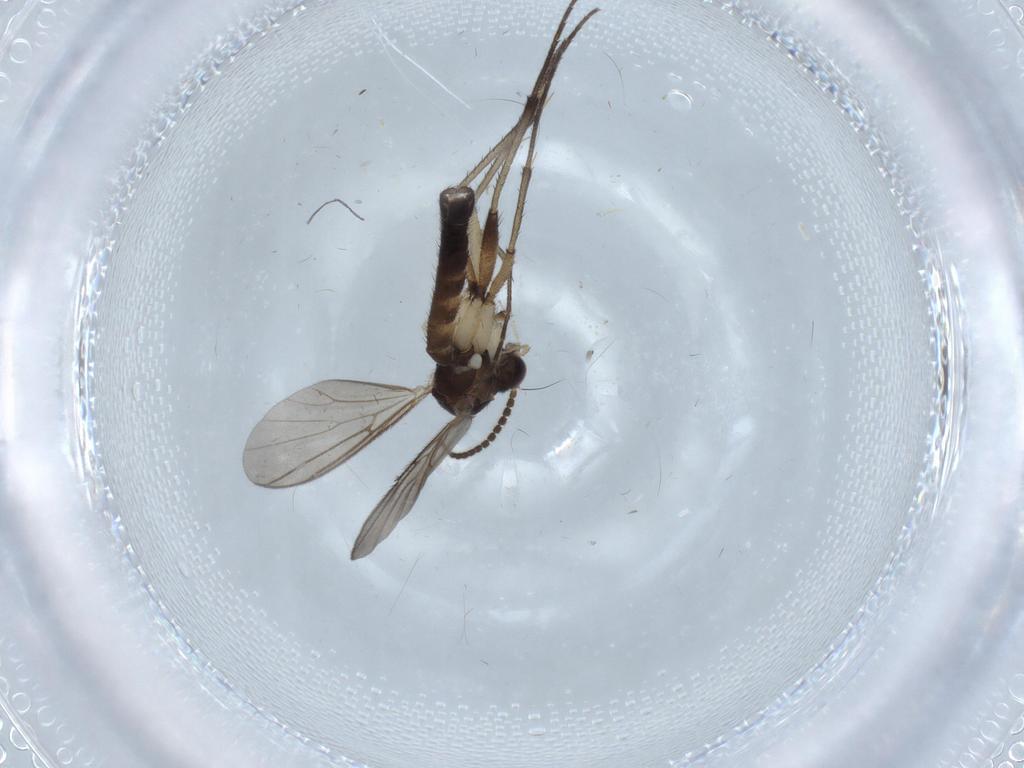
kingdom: Animalia
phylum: Arthropoda
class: Insecta
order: Diptera
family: Mycetophilidae
